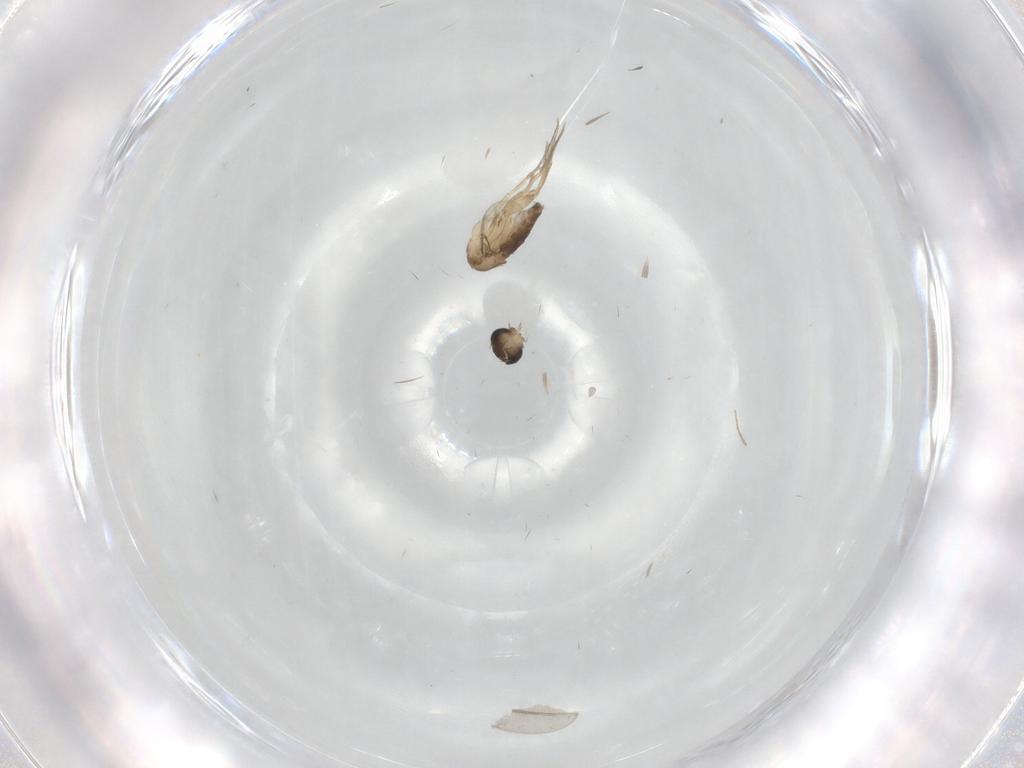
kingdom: Animalia
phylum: Arthropoda
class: Insecta
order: Diptera
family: Phoridae
